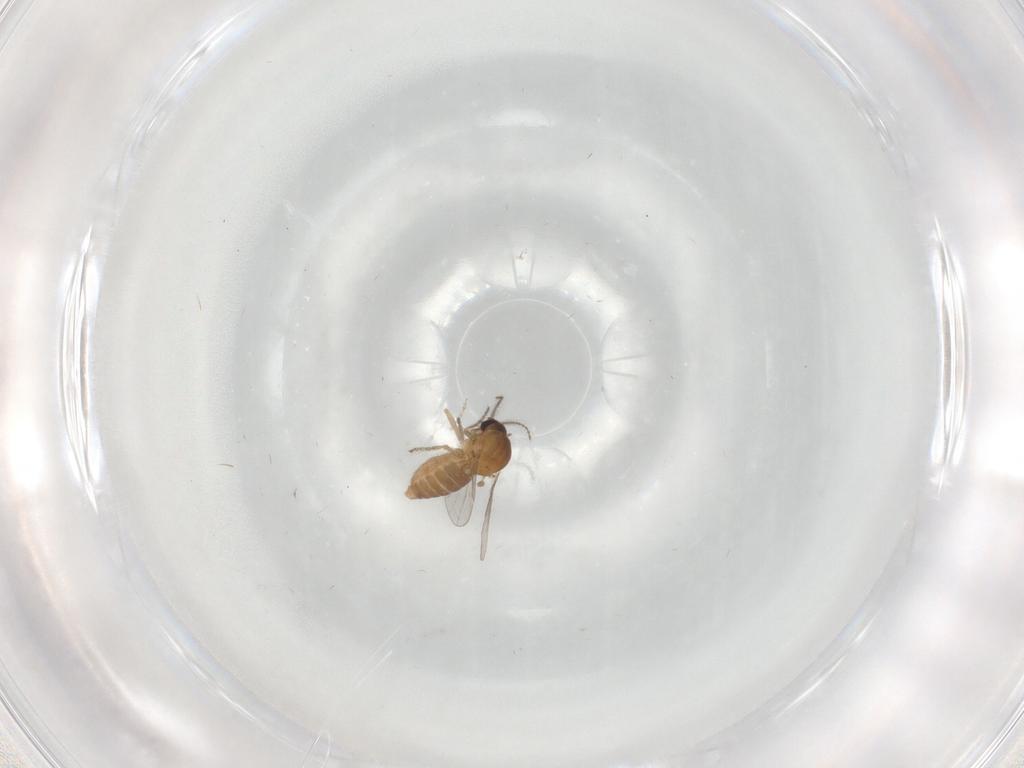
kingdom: Animalia
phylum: Arthropoda
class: Insecta
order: Diptera
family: Ceratopogonidae
